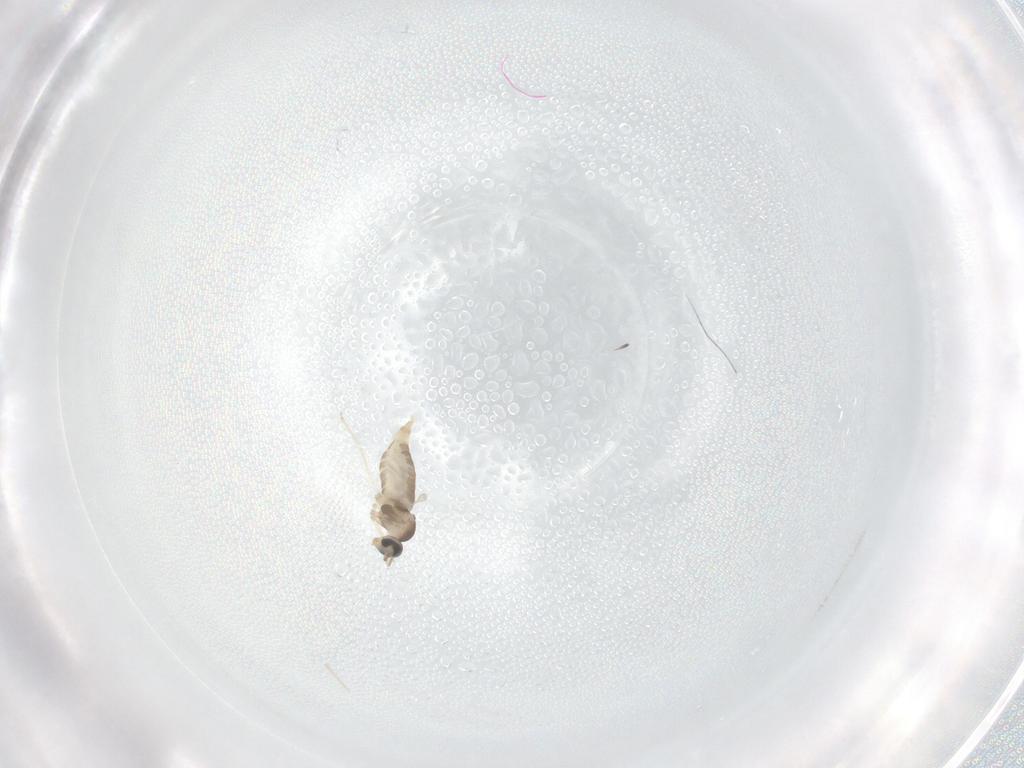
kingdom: Animalia
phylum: Arthropoda
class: Insecta
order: Diptera
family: Cecidomyiidae
